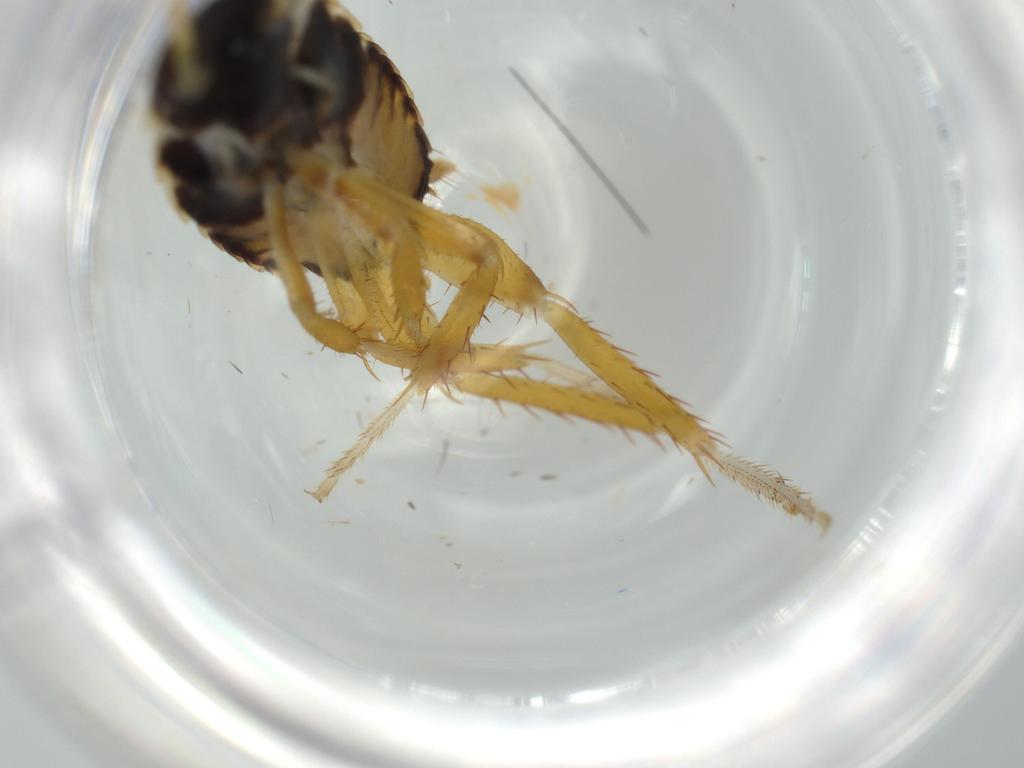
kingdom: Animalia
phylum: Arthropoda
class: Insecta
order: Blattodea
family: Ectobiidae
